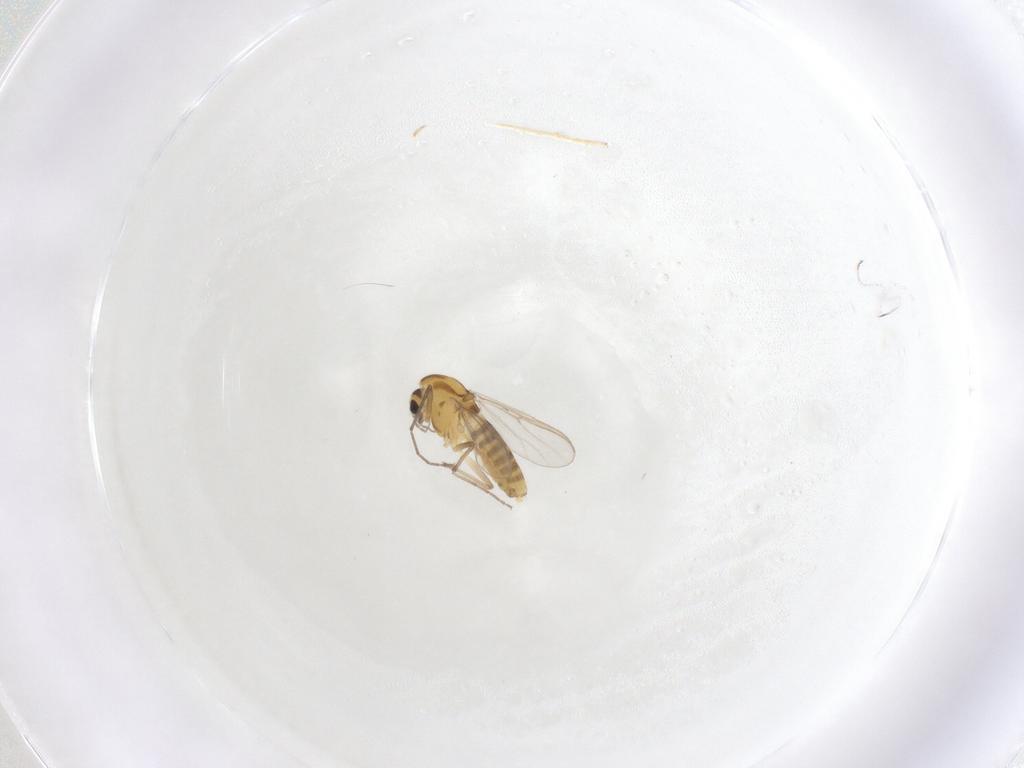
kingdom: Animalia
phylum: Arthropoda
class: Insecta
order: Diptera
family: Chironomidae
